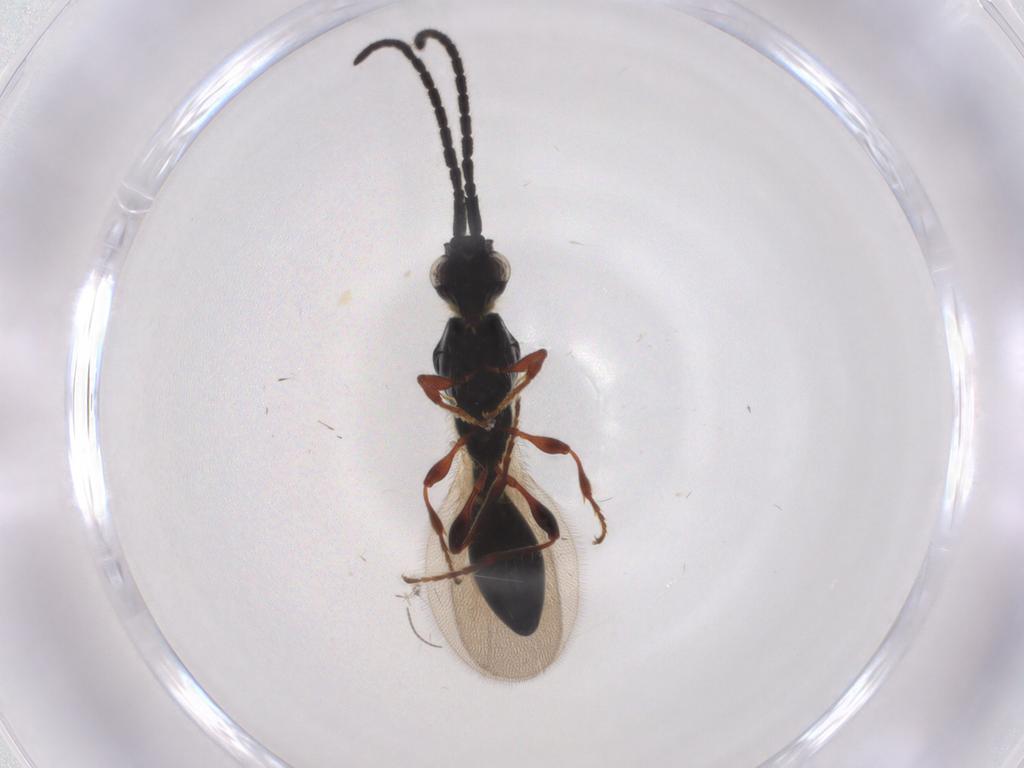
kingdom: Animalia
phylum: Arthropoda
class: Insecta
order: Hymenoptera
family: Diapriidae
